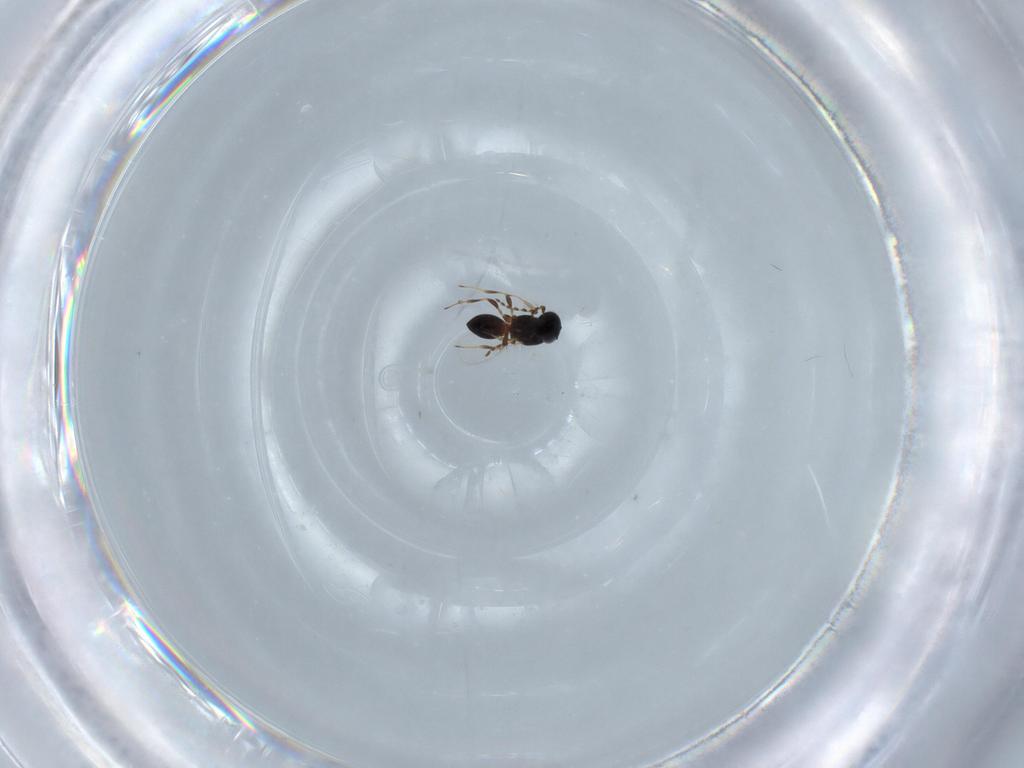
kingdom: Animalia
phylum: Arthropoda
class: Insecta
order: Hymenoptera
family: Platygastridae
